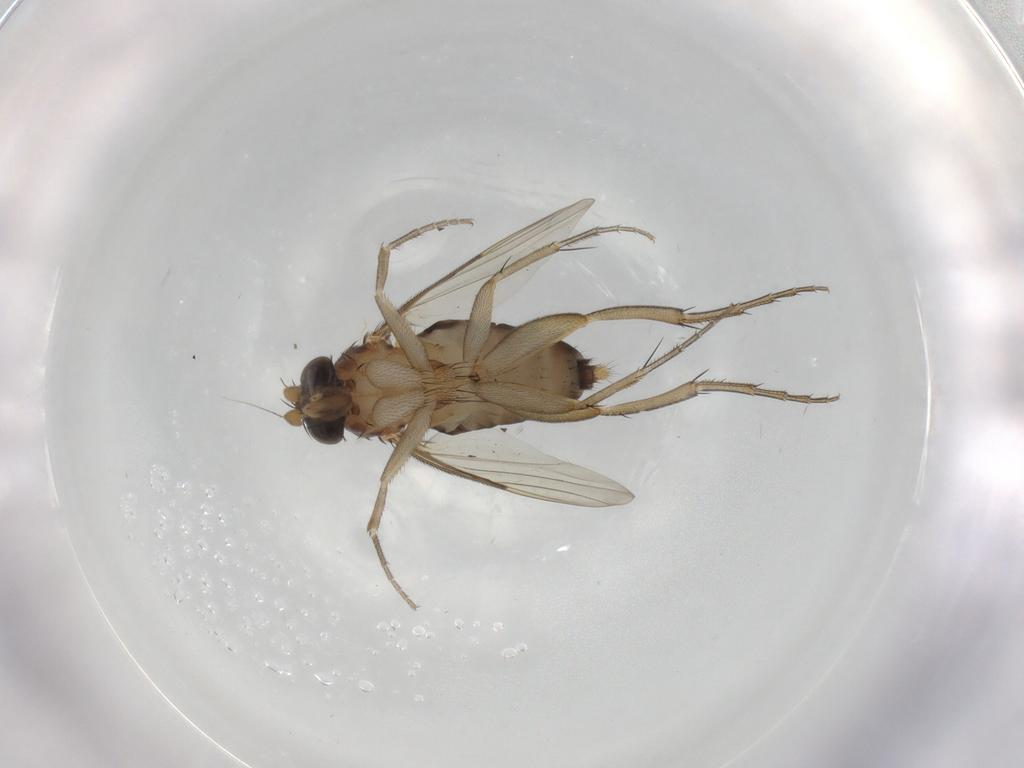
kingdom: Animalia
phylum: Arthropoda
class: Insecta
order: Diptera
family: Phoridae
